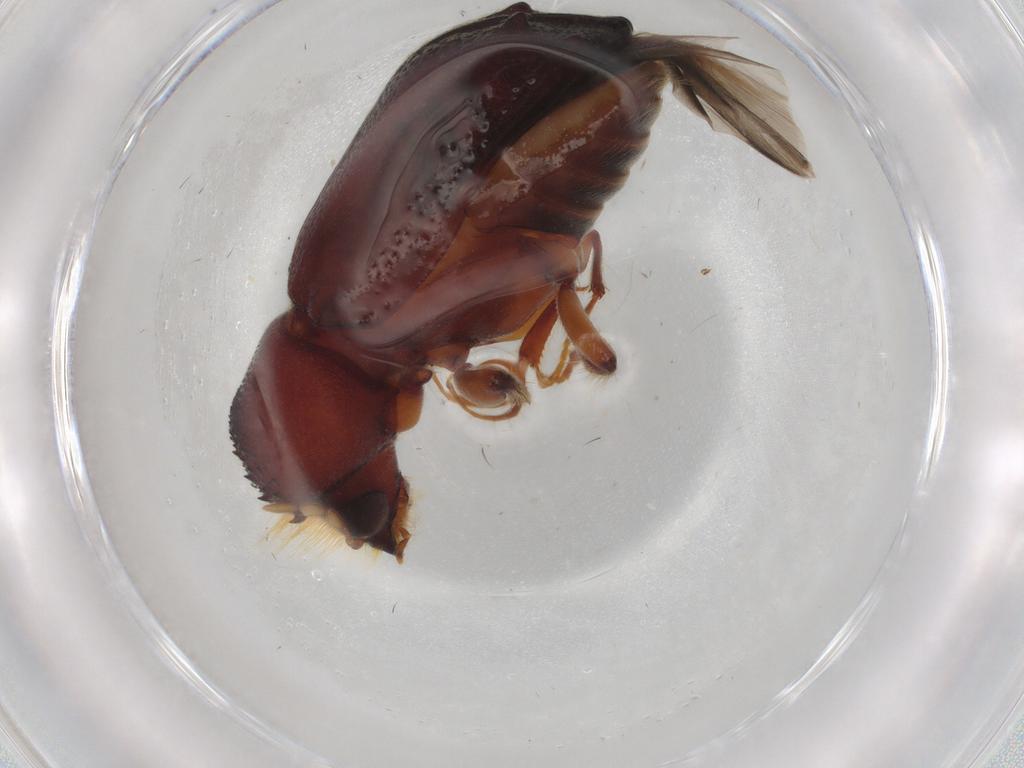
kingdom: Animalia
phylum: Arthropoda
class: Insecta
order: Coleoptera
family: Bostrichidae
